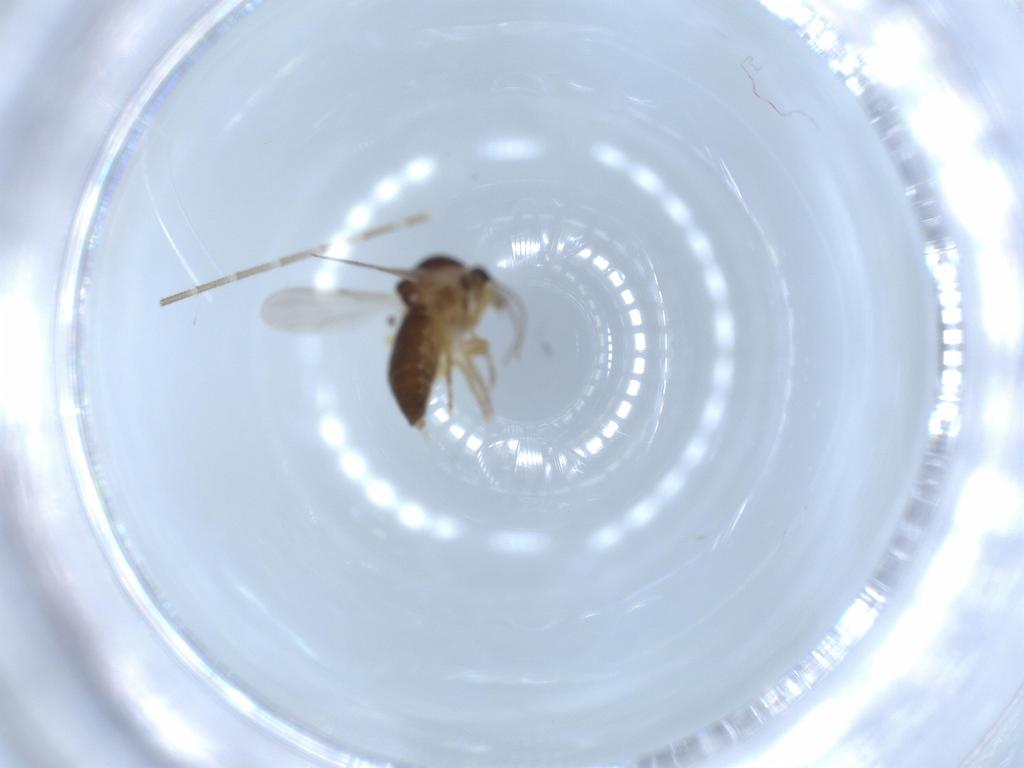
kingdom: Animalia
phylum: Arthropoda
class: Insecta
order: Diptera
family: Ceratopogonidae
